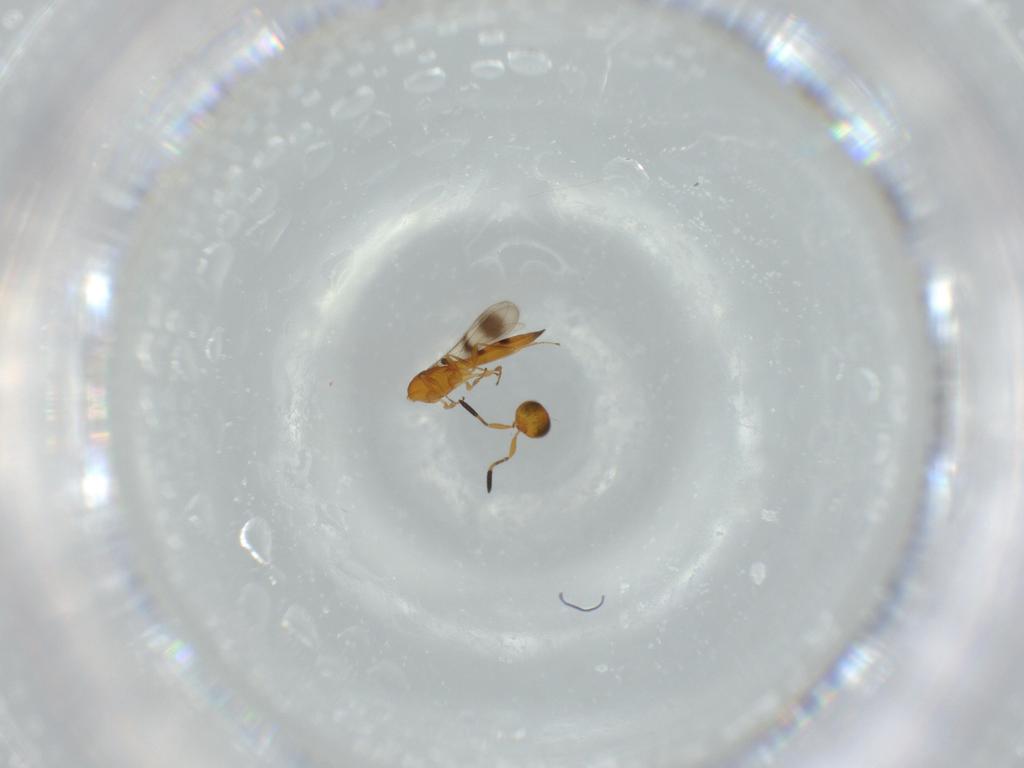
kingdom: Animalia
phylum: Arthropoda
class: Insecta
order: Hymenoptera
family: Scelionidae
